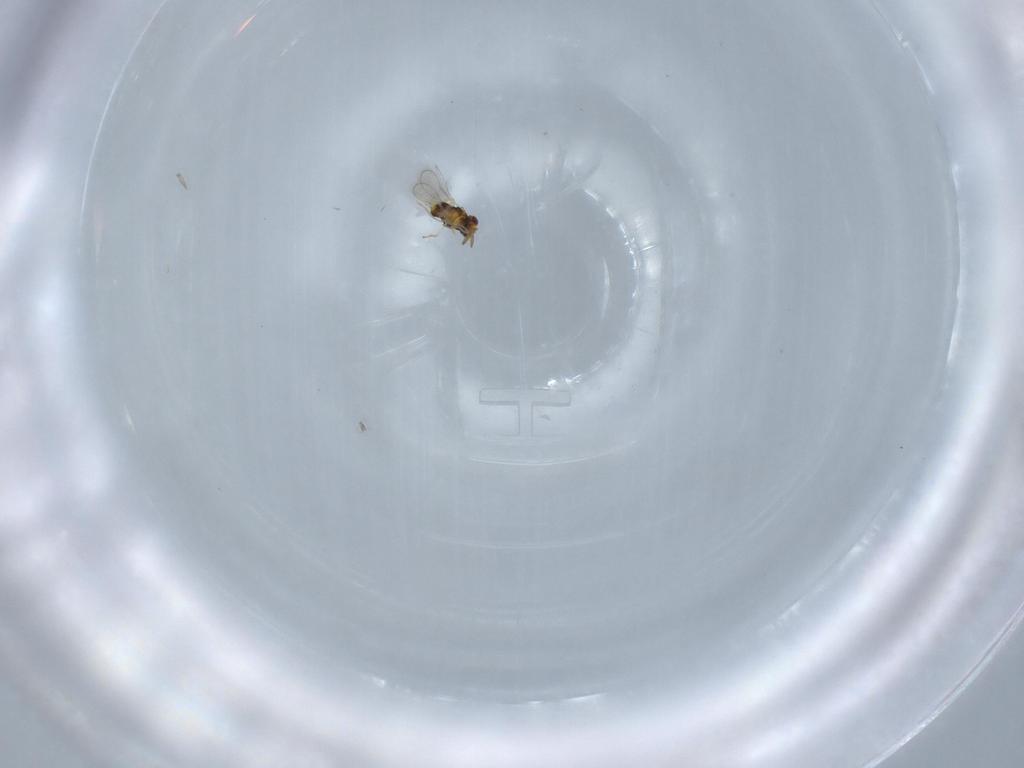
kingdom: Animalia
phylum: Arthropoda
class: Insecta
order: Hymenoptera
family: Aphelinidae
